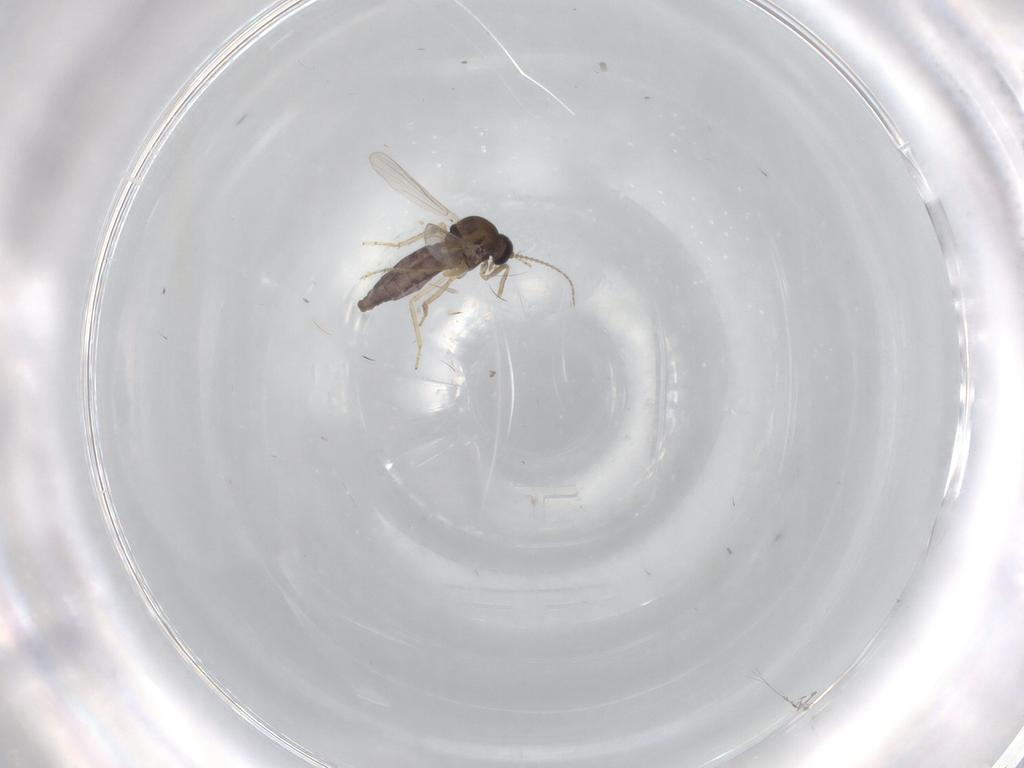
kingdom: Animalia
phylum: Arthropoda
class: Insecta
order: Diptera
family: Ceratopogonidae
